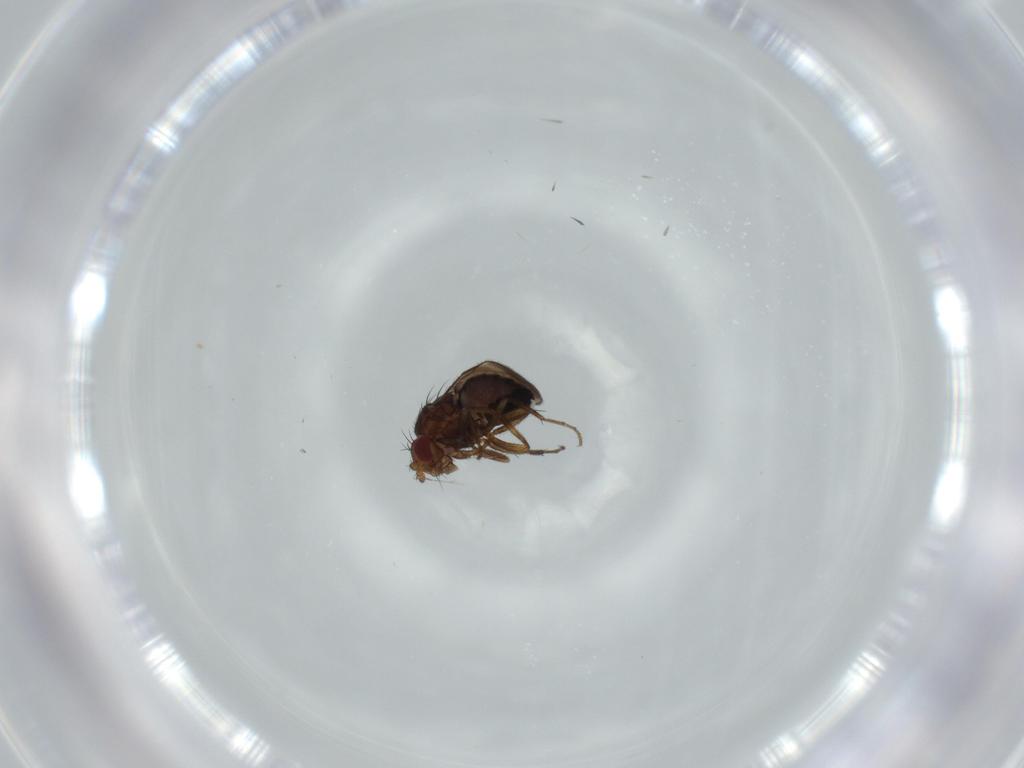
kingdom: Animalia
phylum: Arthropoda
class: Insecta
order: Diptera
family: Sphaeroceridae
